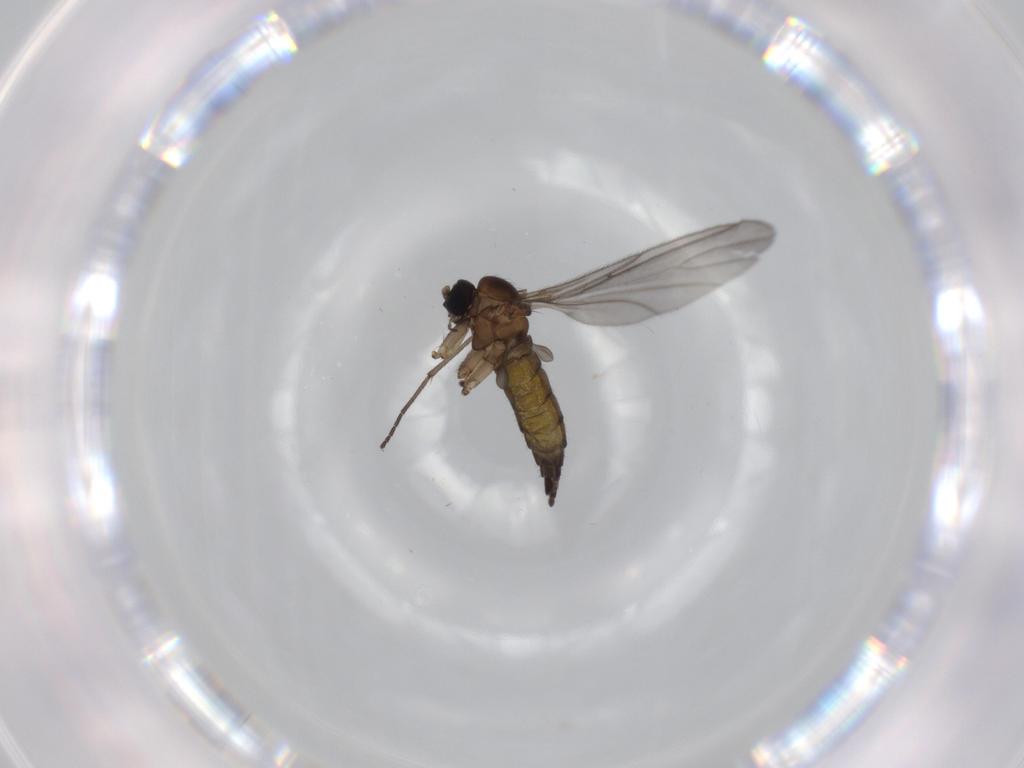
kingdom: Animalia
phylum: Arthropoda
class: Insecta
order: Diptera
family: Sciaridae
